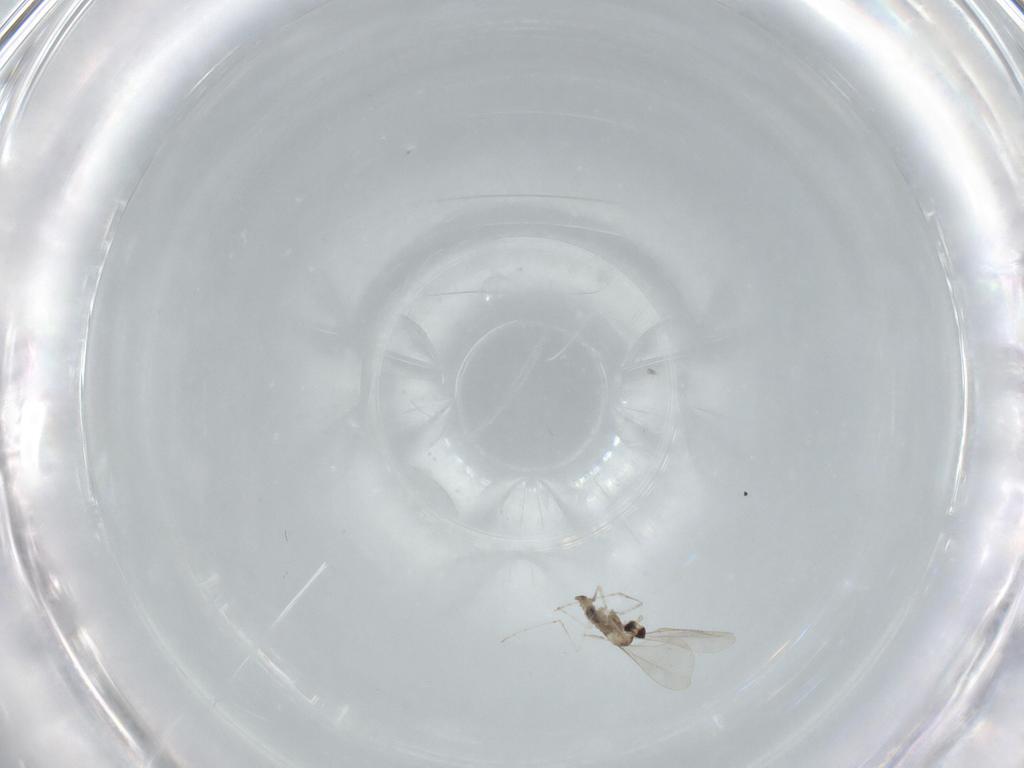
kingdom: Animalia
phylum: Arthropoda
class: Insecta
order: Diptera
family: Cecidomyiidae
